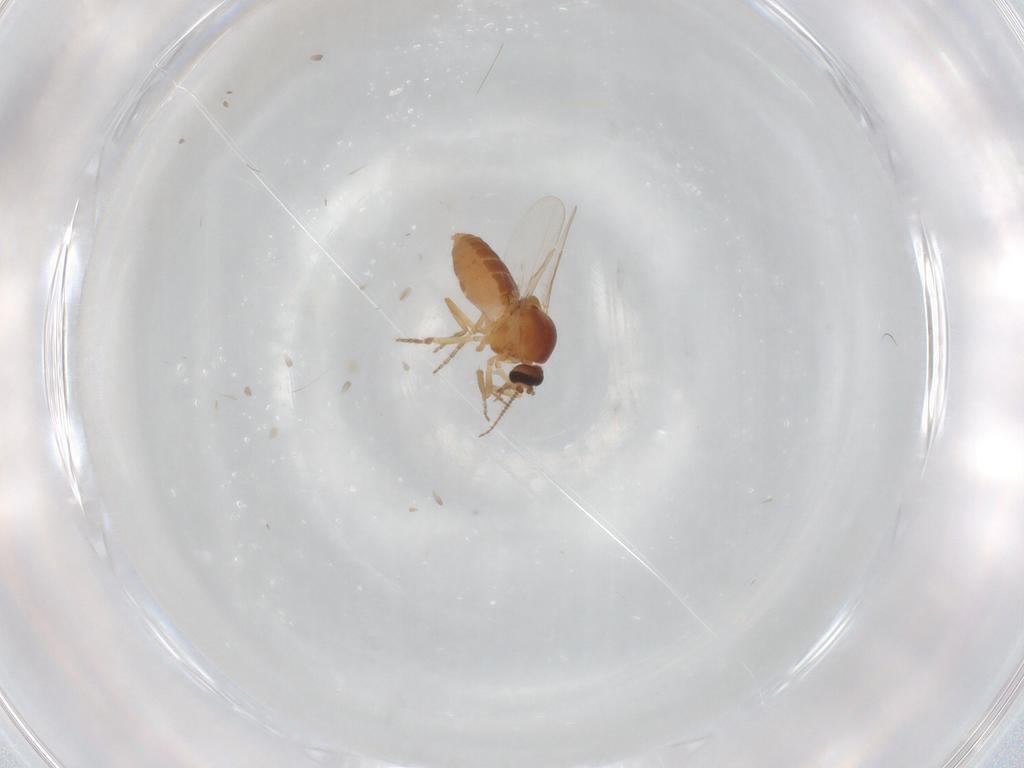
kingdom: Animalia
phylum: Arthropoda
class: Insecta
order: Diptera
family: Ceratopogonidae
